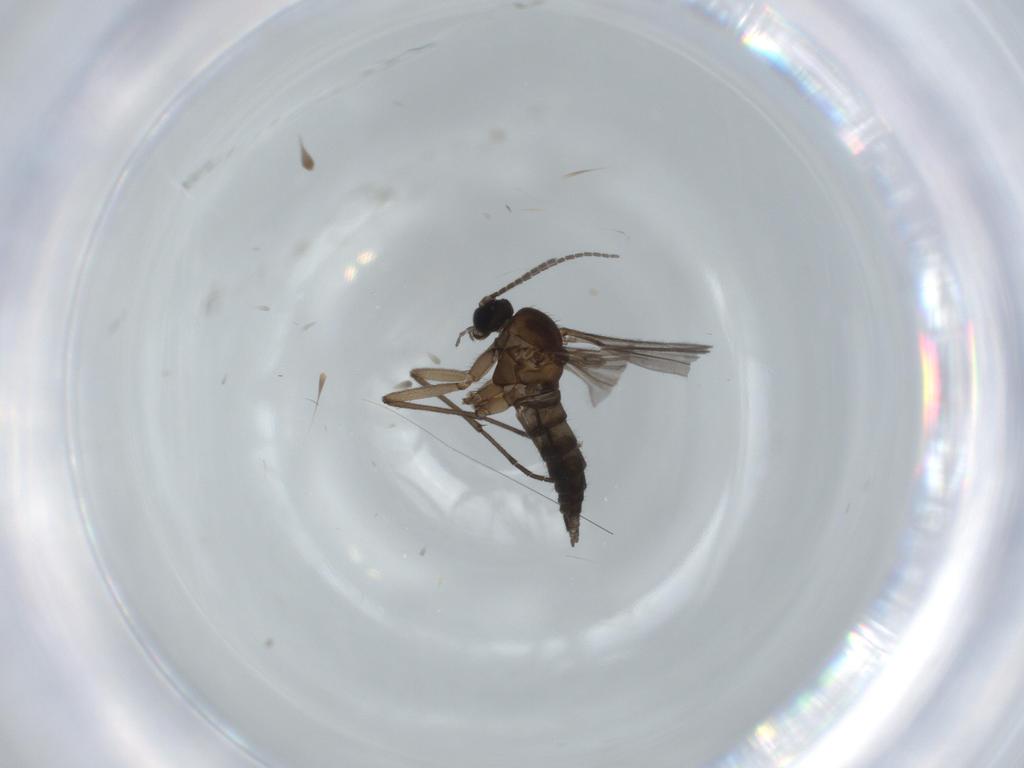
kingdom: Animalia
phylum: Arthropoda
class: Insecta
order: Diptera
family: Sciaridae
